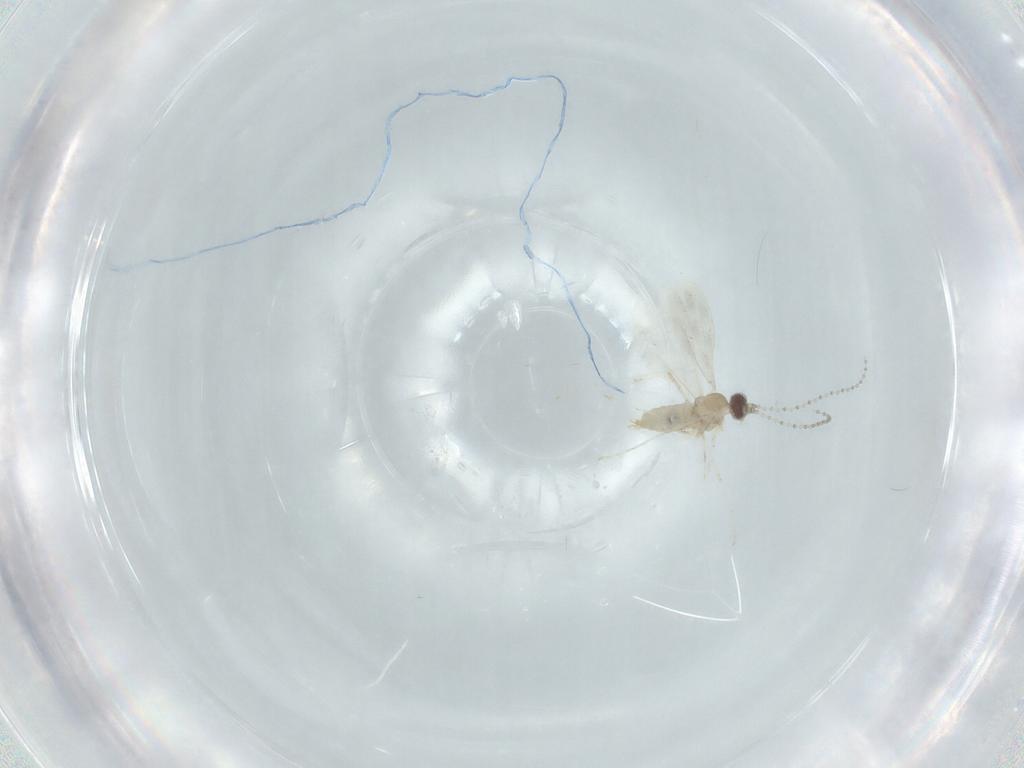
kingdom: Animalia
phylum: Arthropoda
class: Insecta
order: Diptera
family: Cecidomyiidae
